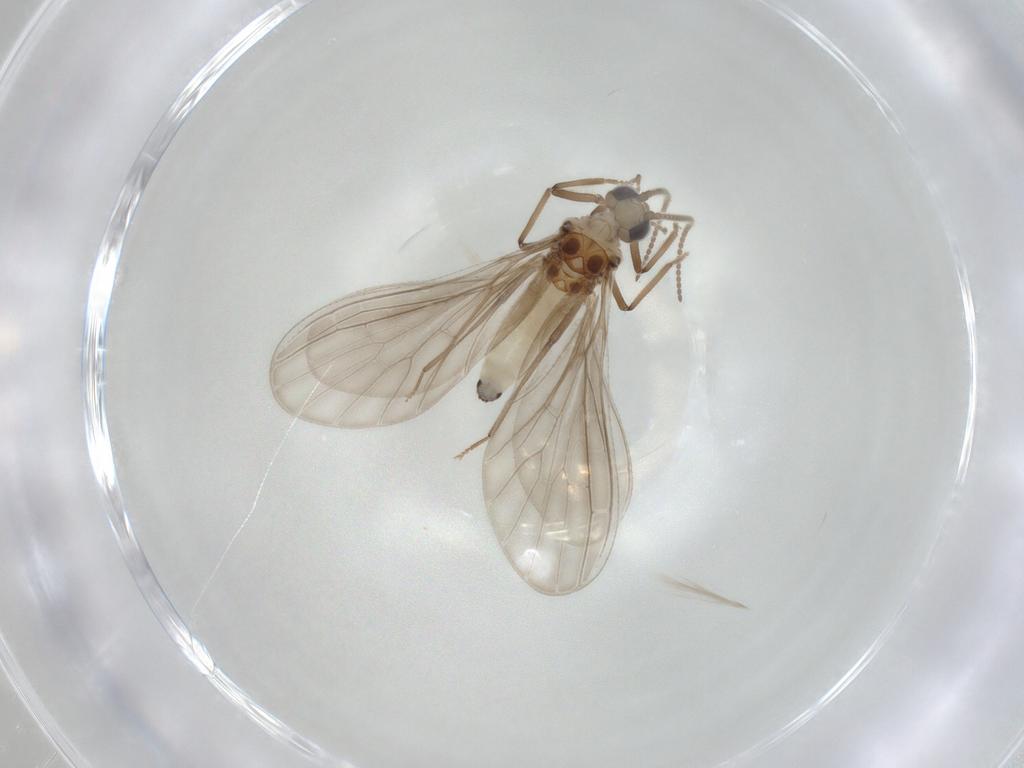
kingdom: Animalia
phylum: Arthropoda
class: Insecta
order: Neuroptera
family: Coniopterygidae
